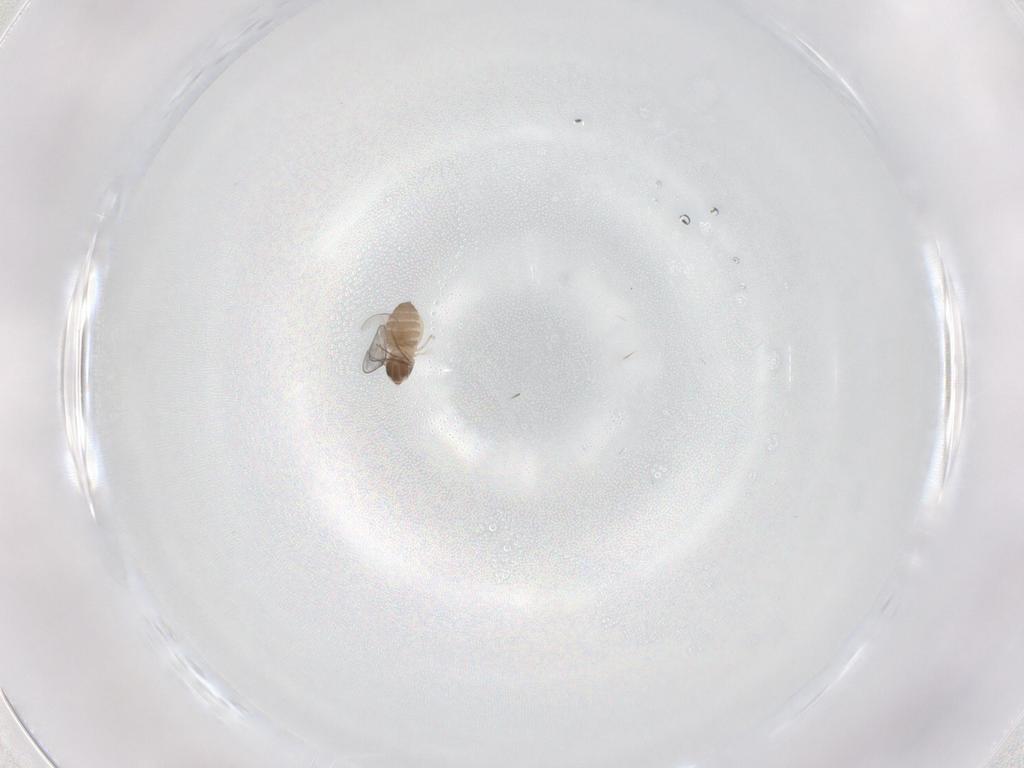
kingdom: Animalia
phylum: Arthropoda
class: Insecta
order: Diptera
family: Cecidomyiidae
